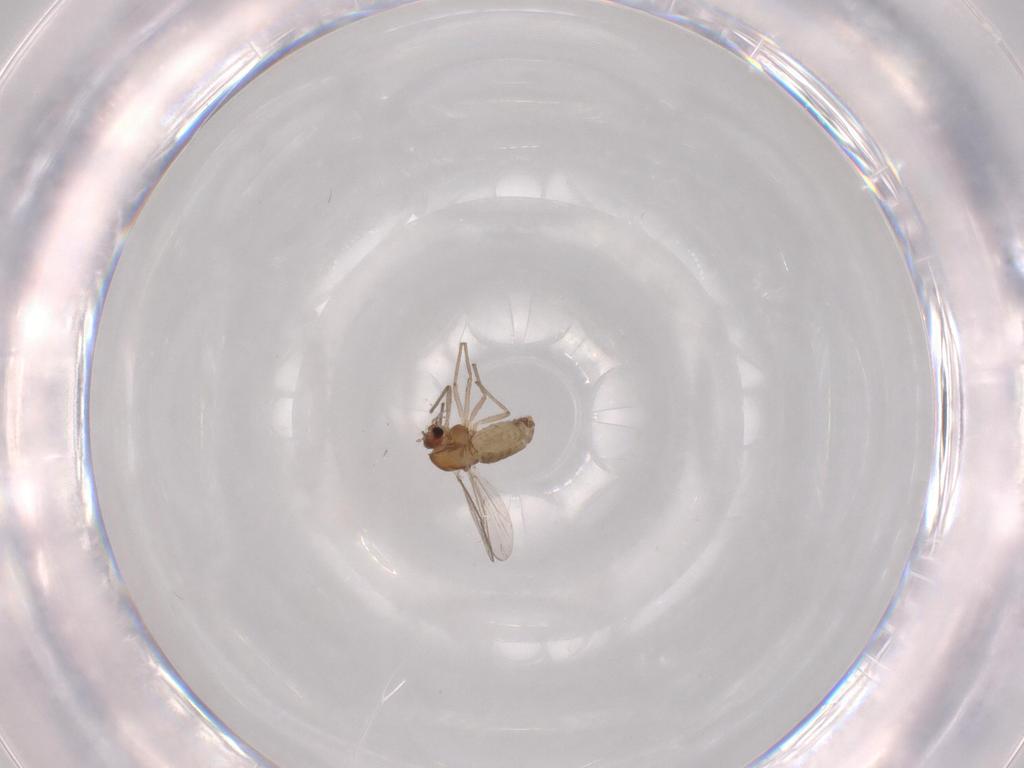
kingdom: Animalia
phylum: Arthropoda
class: Insecta
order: Diptera
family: Chironomidae
